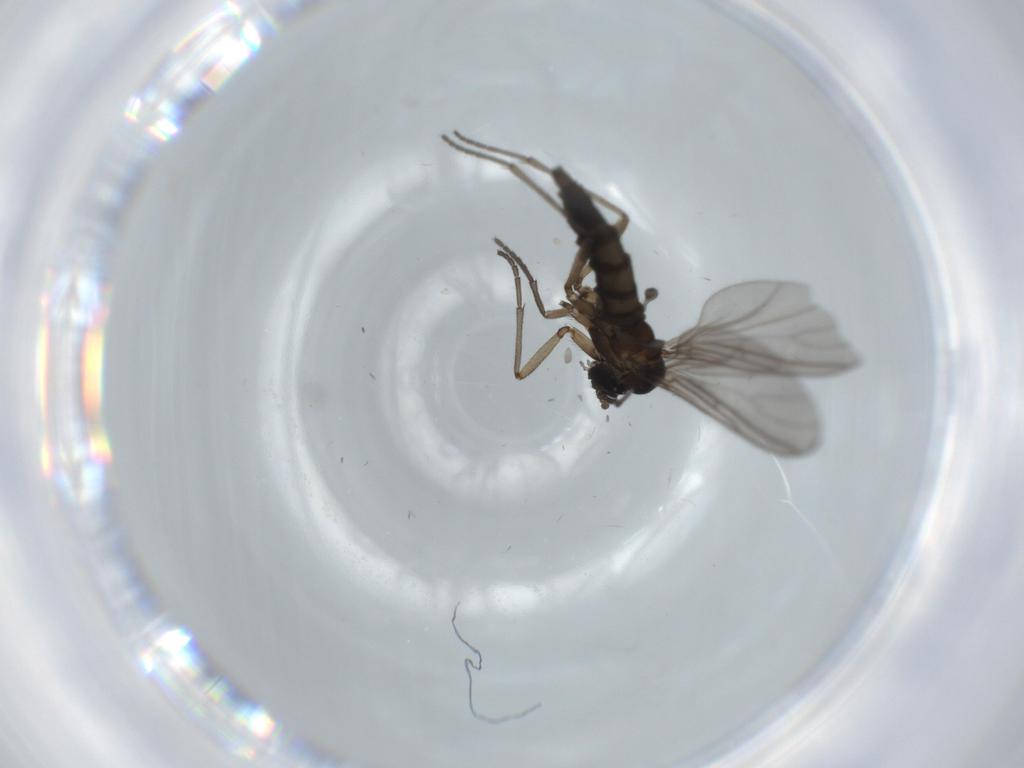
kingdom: Animalia
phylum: Arthropoda
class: Insecta
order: Diptera
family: Sciaridae
